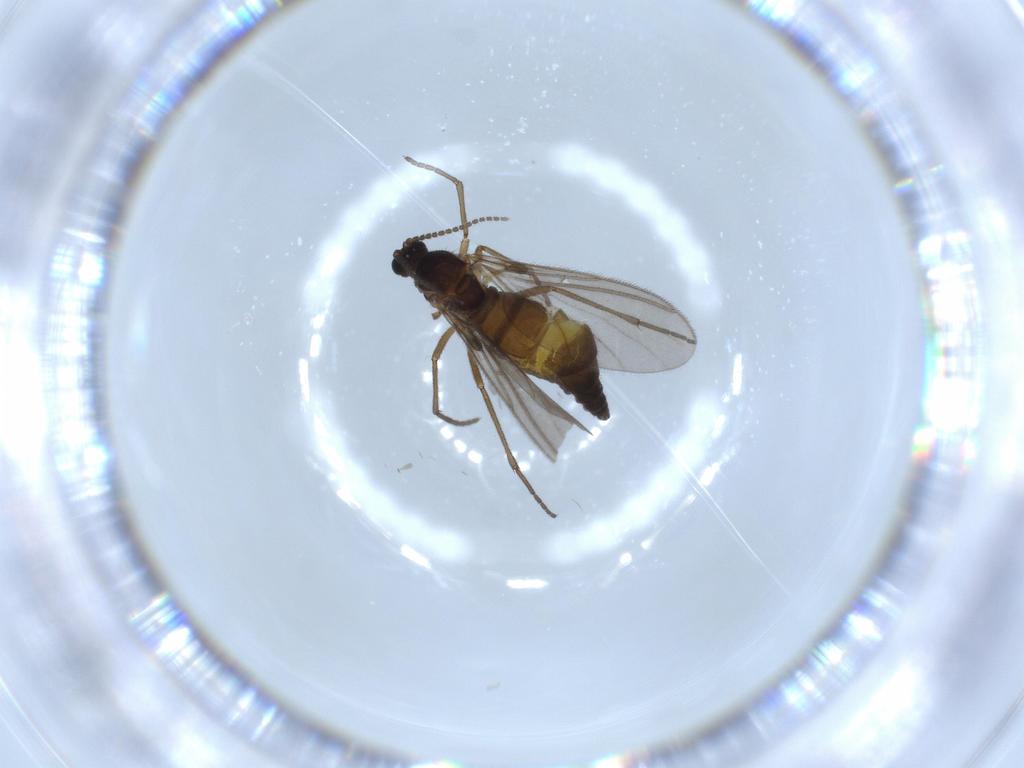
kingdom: Animalia
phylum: Arthropoda
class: Insecta
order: Diptera
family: Sciaridae
